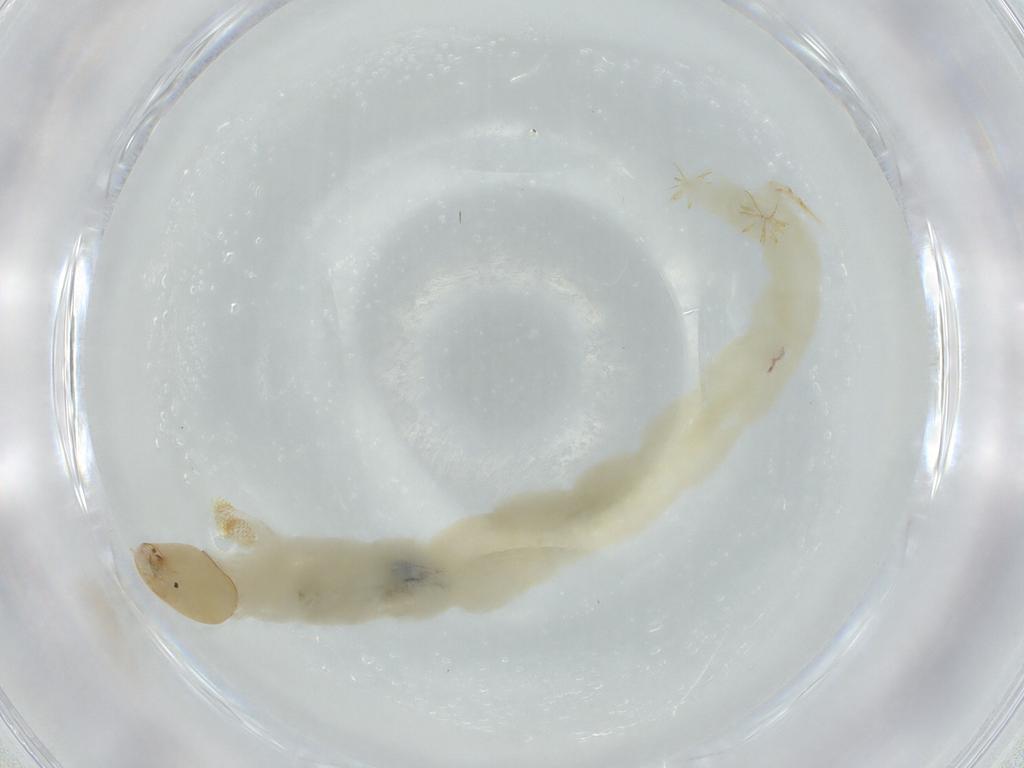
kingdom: Animalia
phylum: Arthropoda
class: Insecta
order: Diptera
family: Chironomidae
